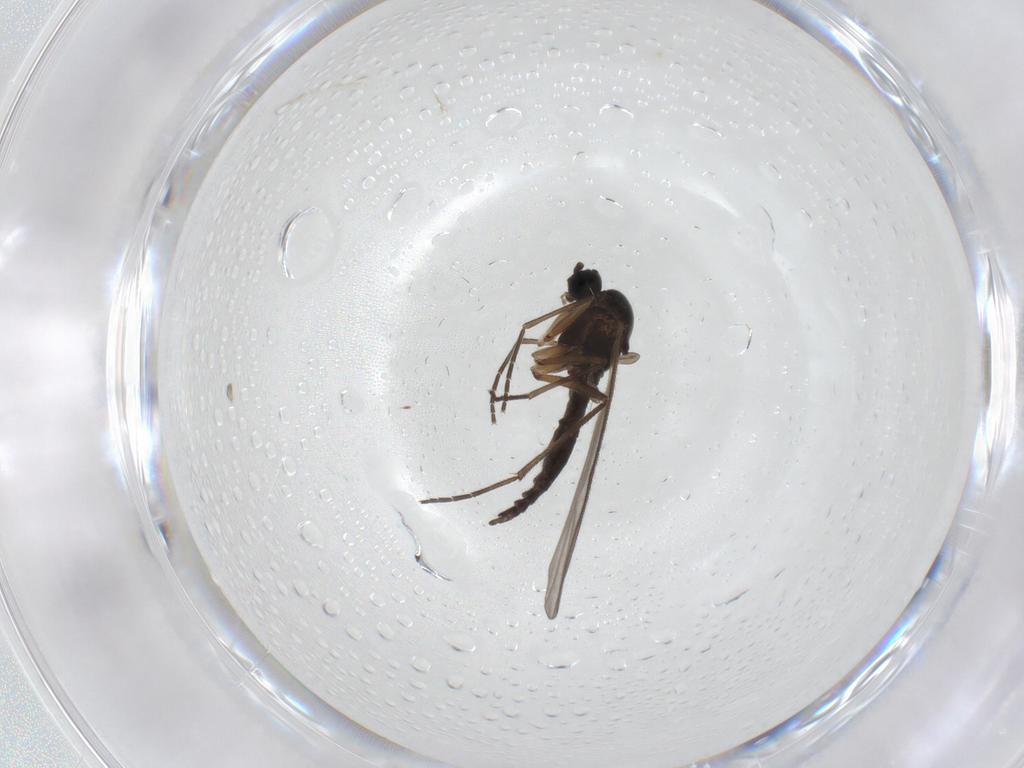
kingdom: Animalia
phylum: Arthropoda
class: Insecta
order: Diptera
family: Sciaridae
